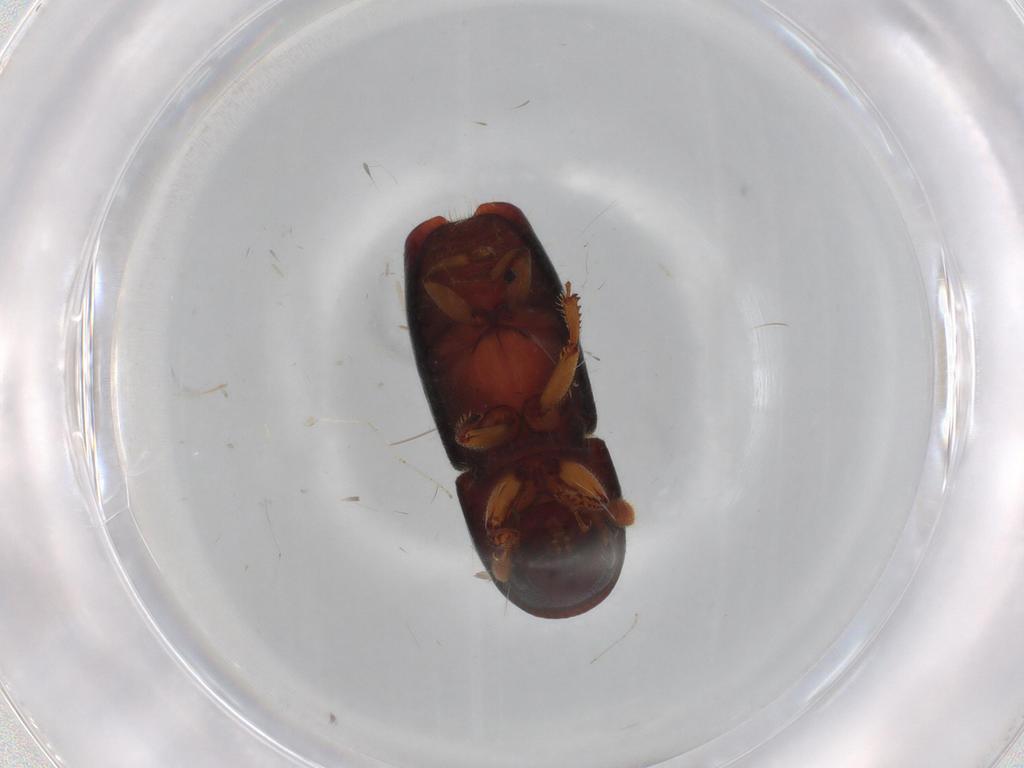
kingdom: Animalia
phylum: Arthropoda
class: Insecta
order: Coleoptera
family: Curculionidae
